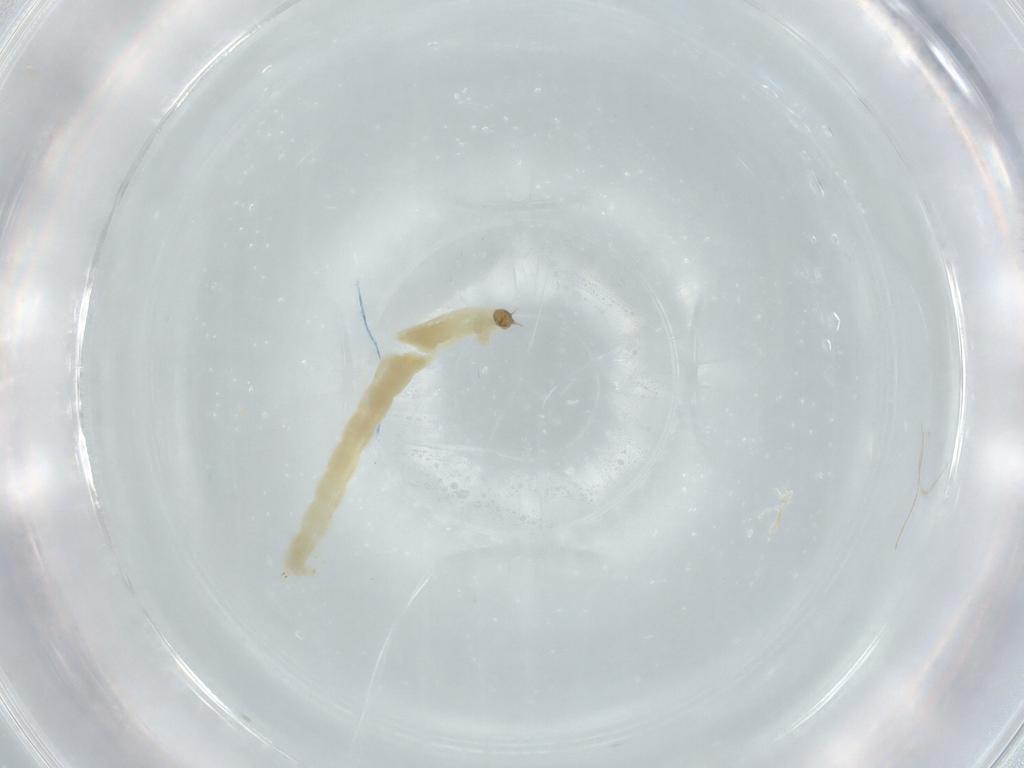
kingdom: Animalia
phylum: Arthropoda
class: Insecta
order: Diptera
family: Chironomidae
